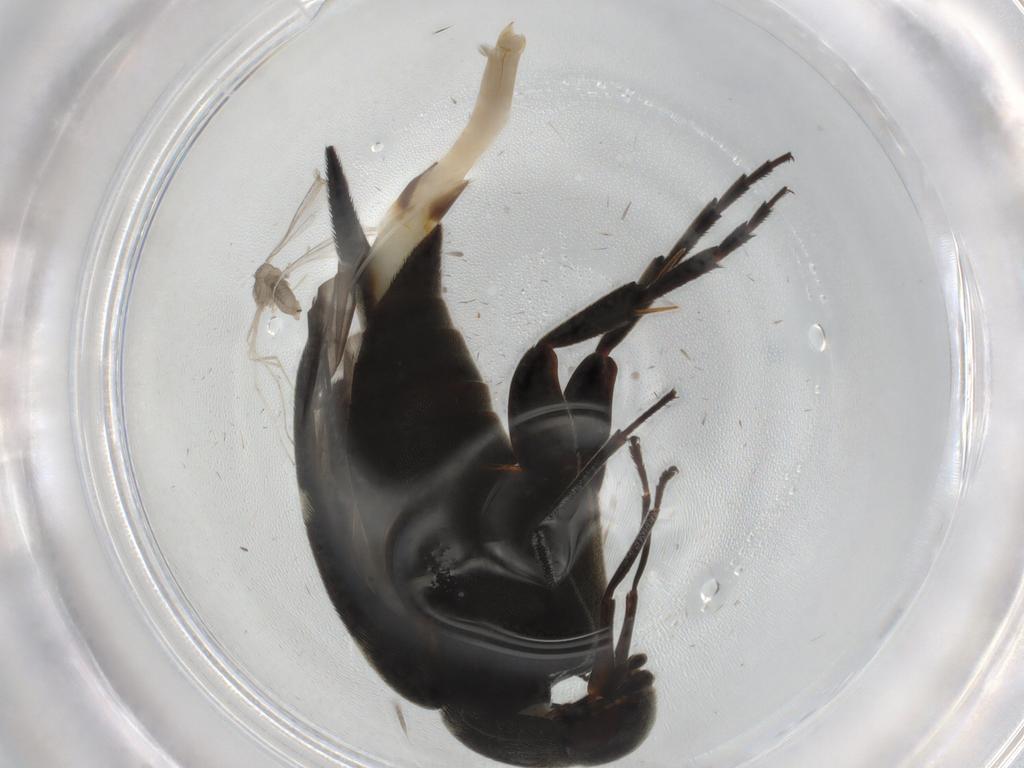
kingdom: Animalia
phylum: Arthropoda
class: Insecta
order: Coleoptera
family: Mordellidae
